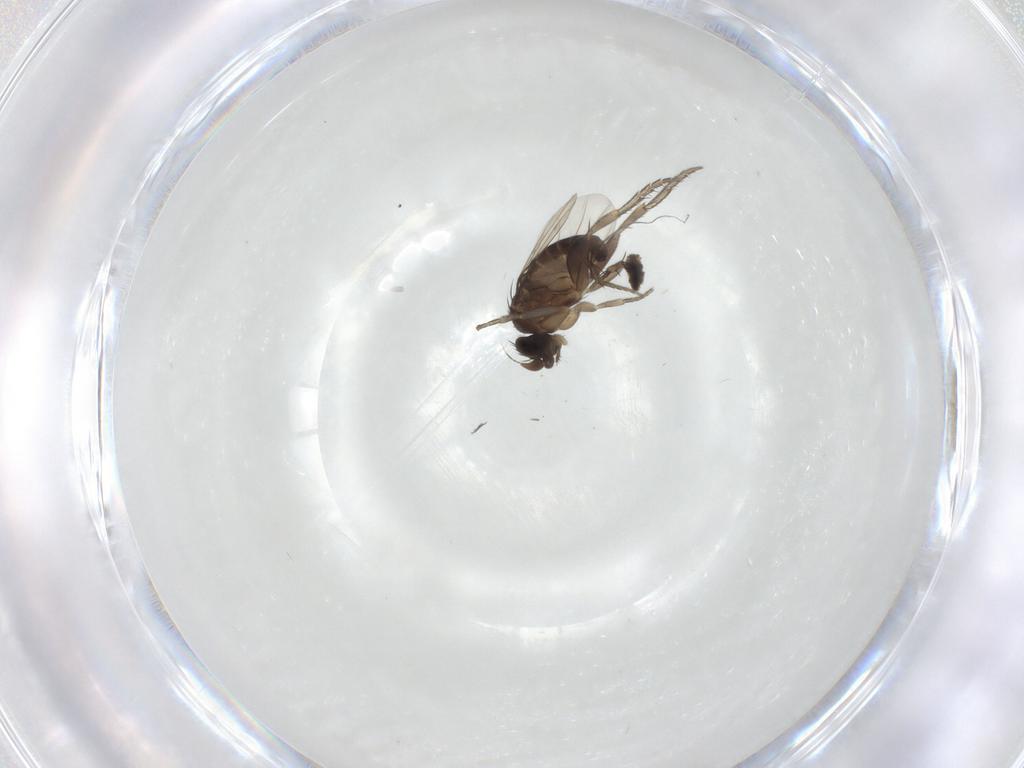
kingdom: Animalia
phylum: Arthropoda
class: Insecta
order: Diptera
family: Phoridae
